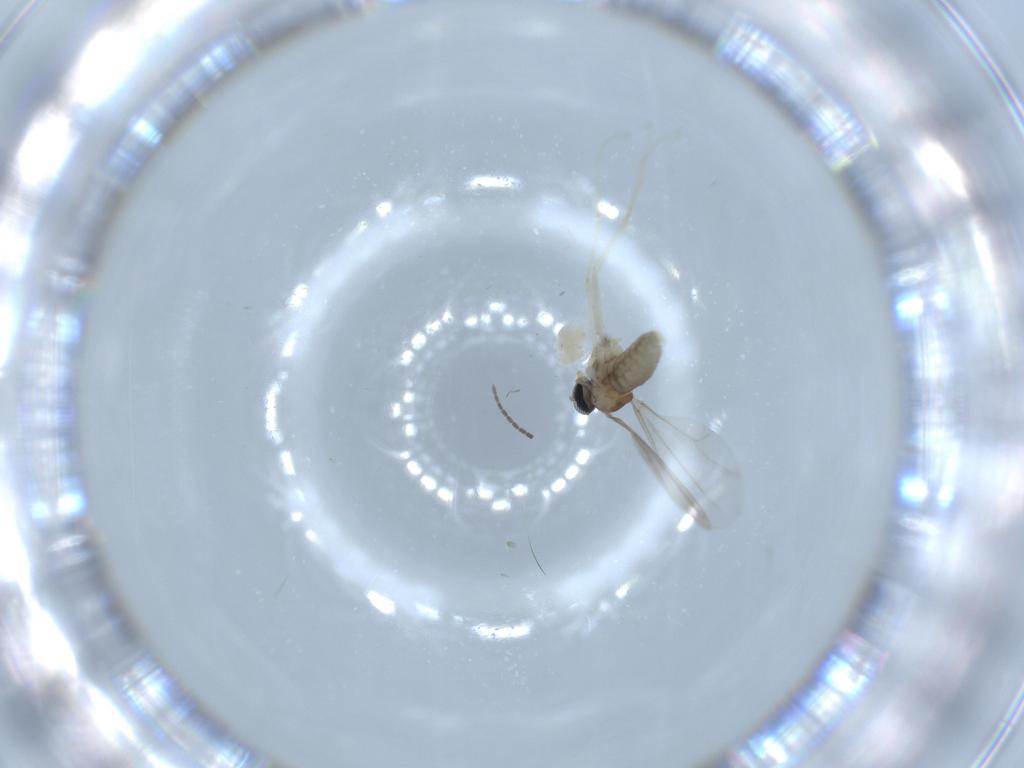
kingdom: Animalia
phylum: Arthropoda
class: Insecta
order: Diptera
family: Cecidomyiidae
